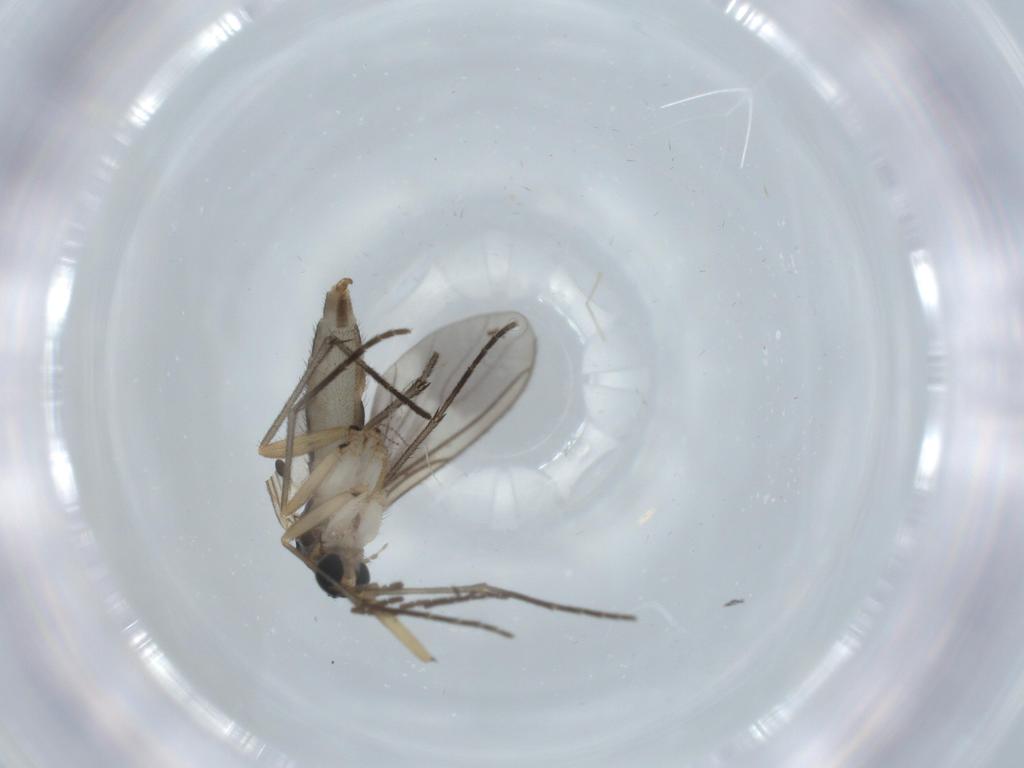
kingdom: Animalia
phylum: Arthropoda
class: Insecta
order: Diptera
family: Sciaridae
